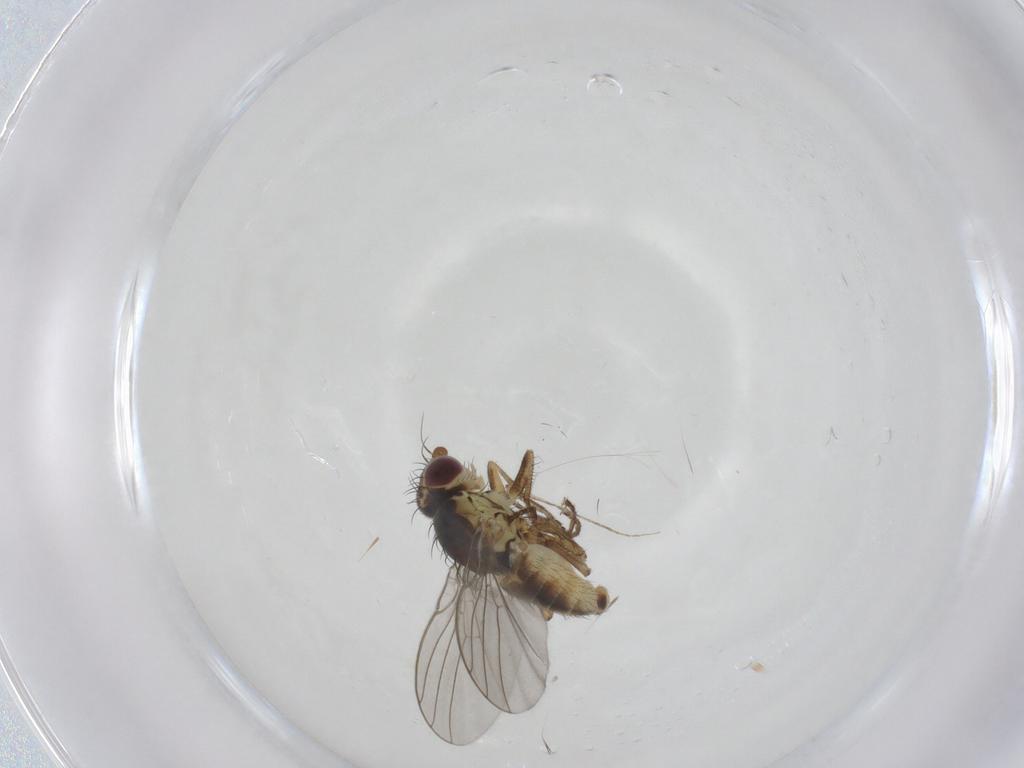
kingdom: Animalia
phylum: Arthropoda
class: Insecta
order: Diptera
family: Agromyzidae
